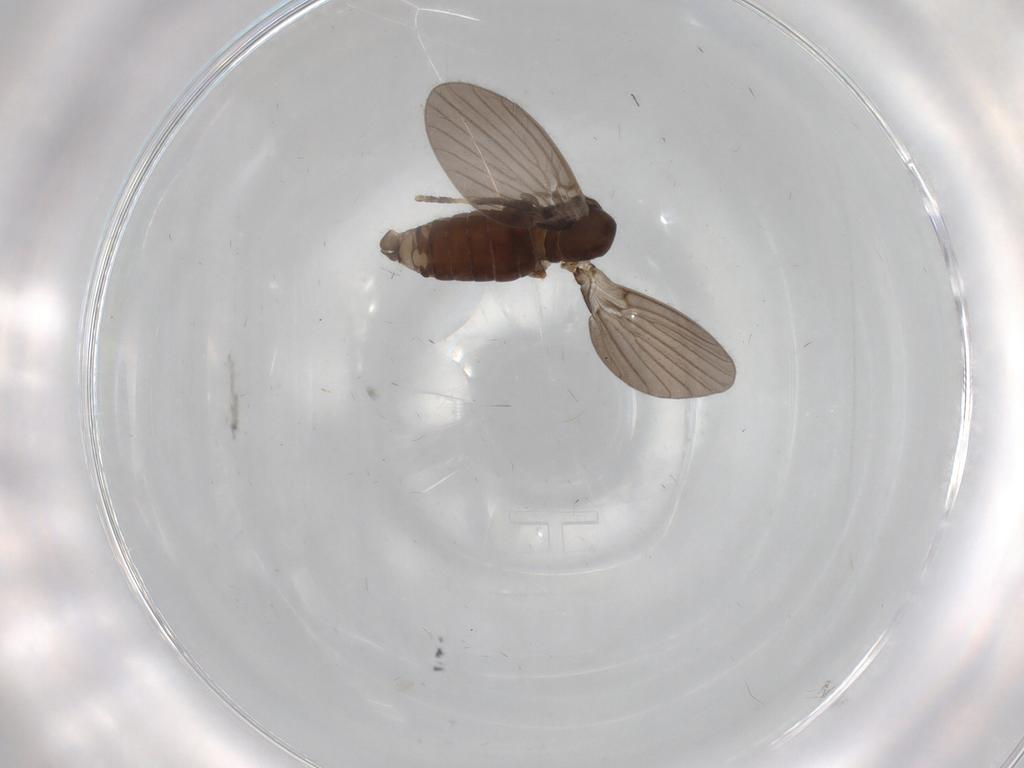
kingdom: Animalia
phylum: Arthropoda
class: Insecta
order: Diptera
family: Psychodidae
